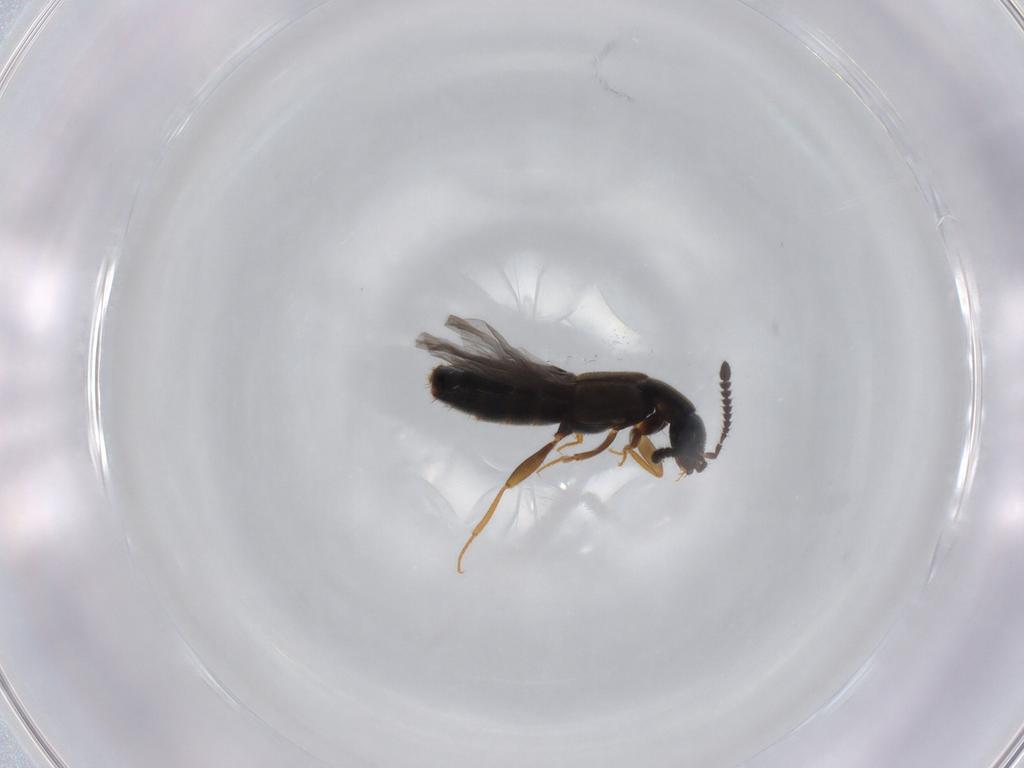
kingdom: Animalia
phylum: Arthropoda
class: Insecta
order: Coleoptera
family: Staphylinidae
